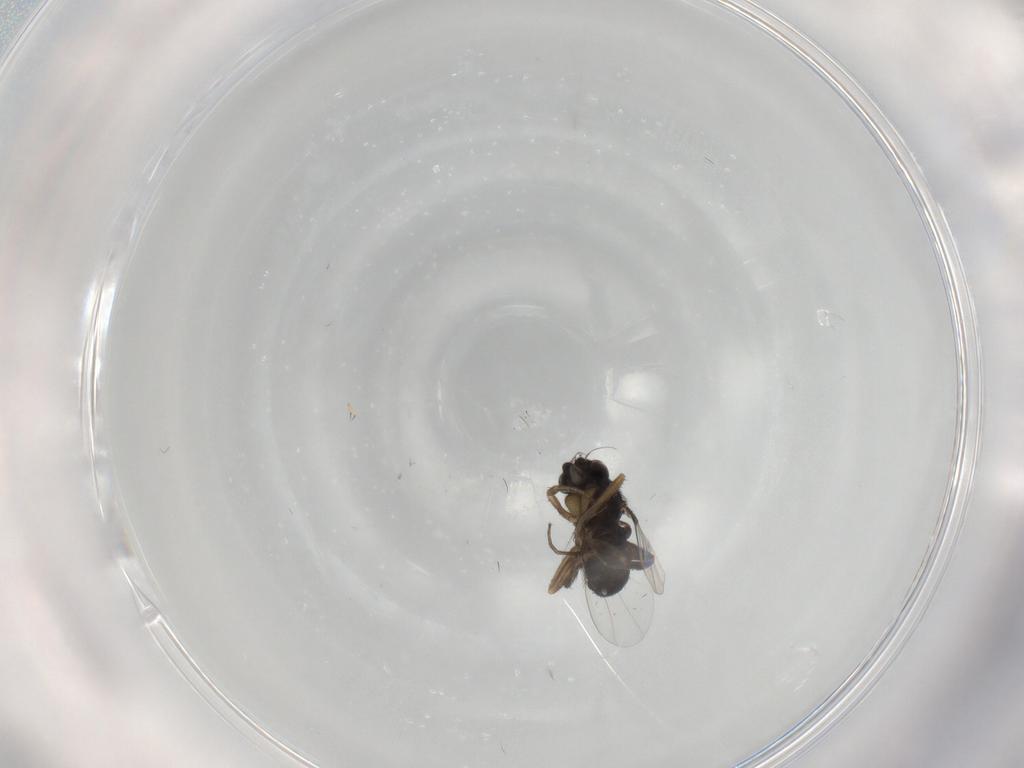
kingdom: Animalia
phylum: Arthropoda
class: Insecta
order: Diptera
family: Phoridae
